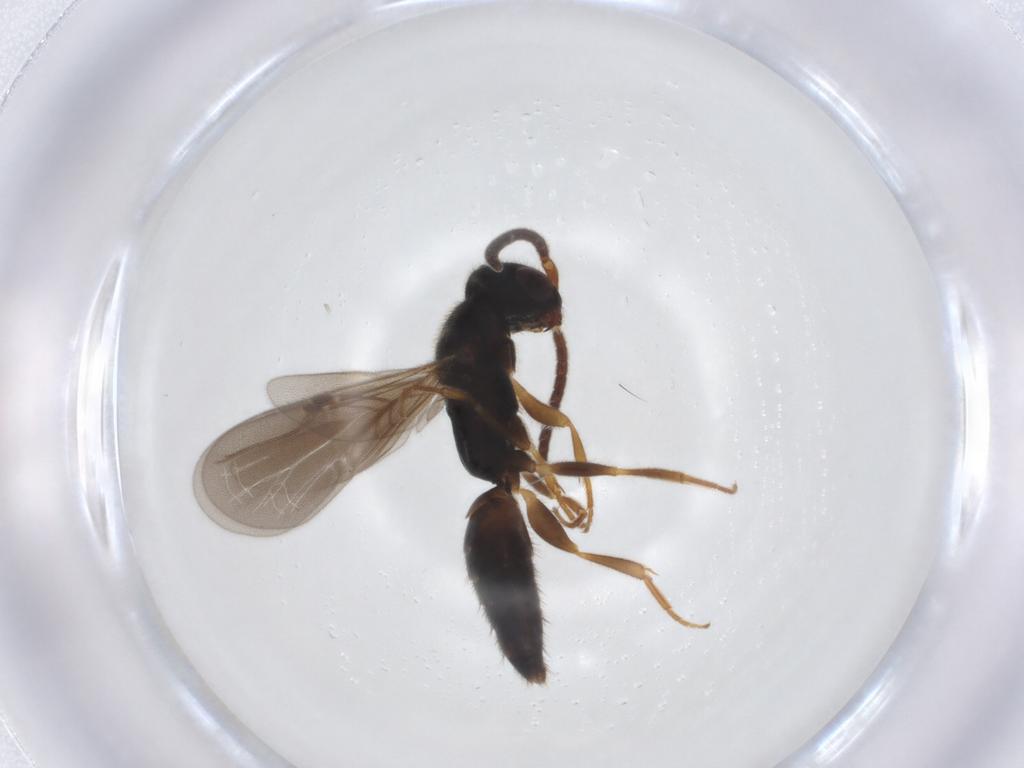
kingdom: Animalia
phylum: Arthropoda
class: Insecta
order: Hymenoptera
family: Bethylidae
